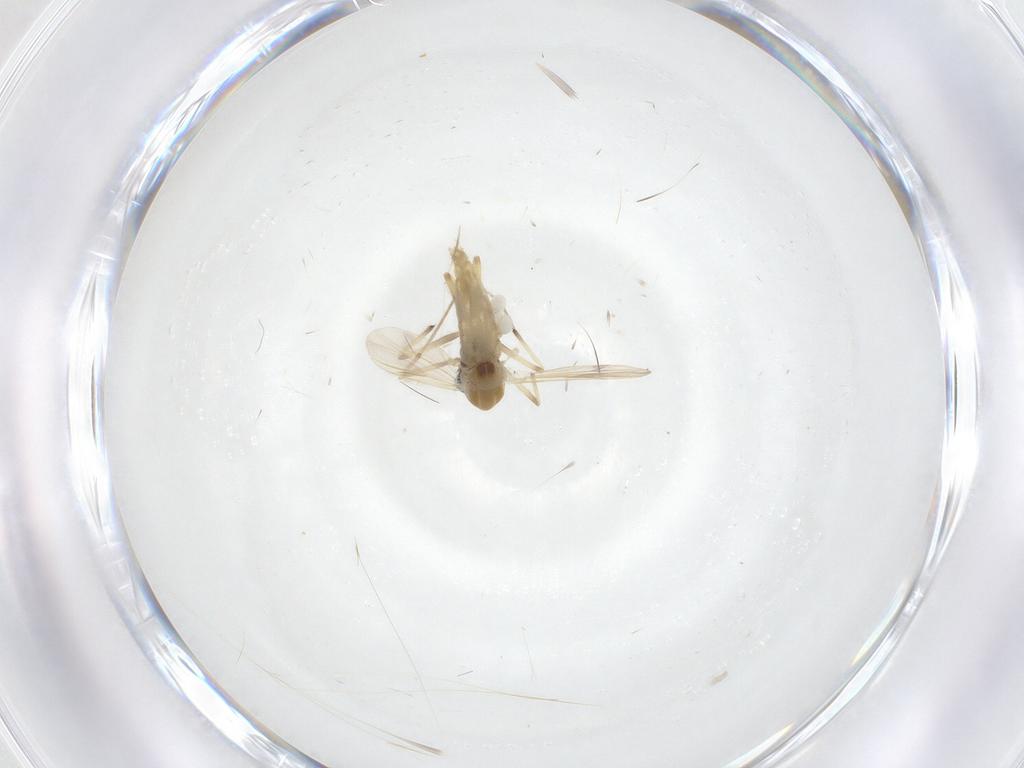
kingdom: Animalia
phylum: Arthropoda
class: Insecta
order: Diptera
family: Chironomidae
